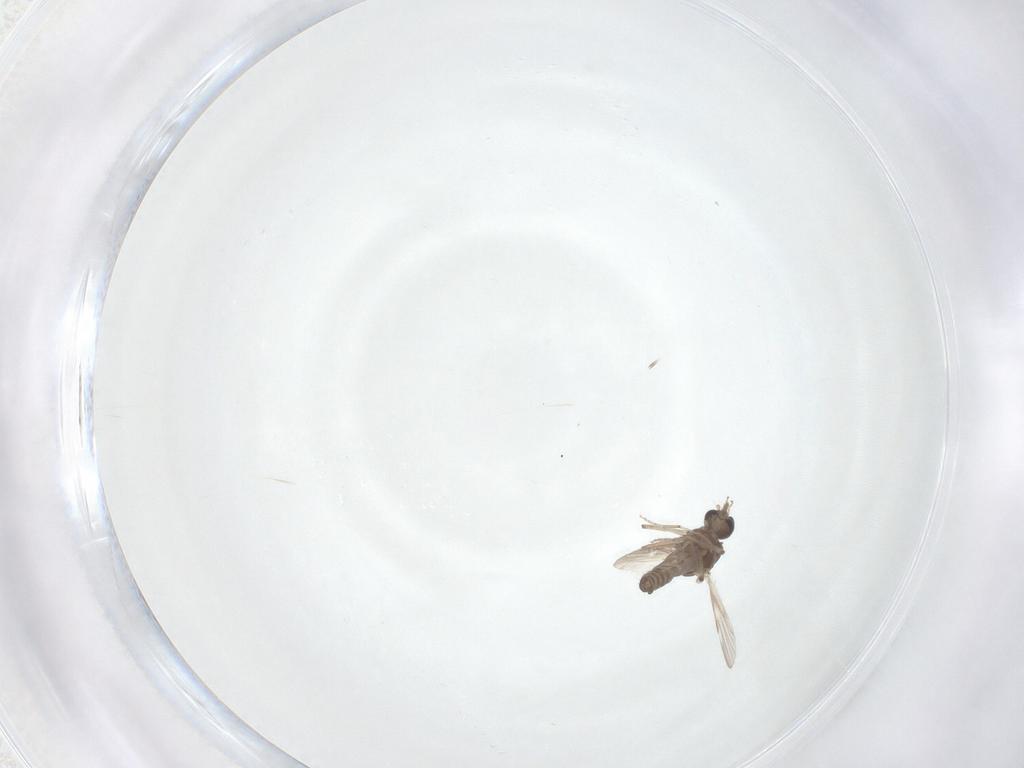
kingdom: Animalia
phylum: Arthropoda
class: Insecta
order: Diptera
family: Ceratopogonidae
